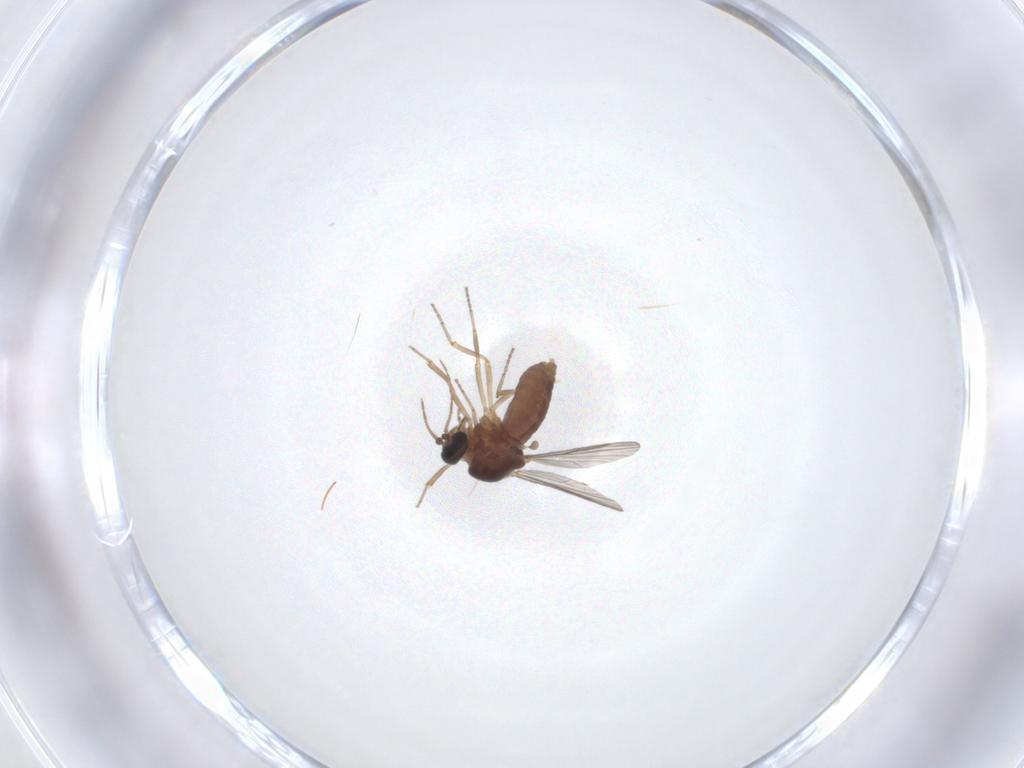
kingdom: Animalia
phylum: Arthropoda
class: Insecta
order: Diptera
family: Ceratopogonidae
